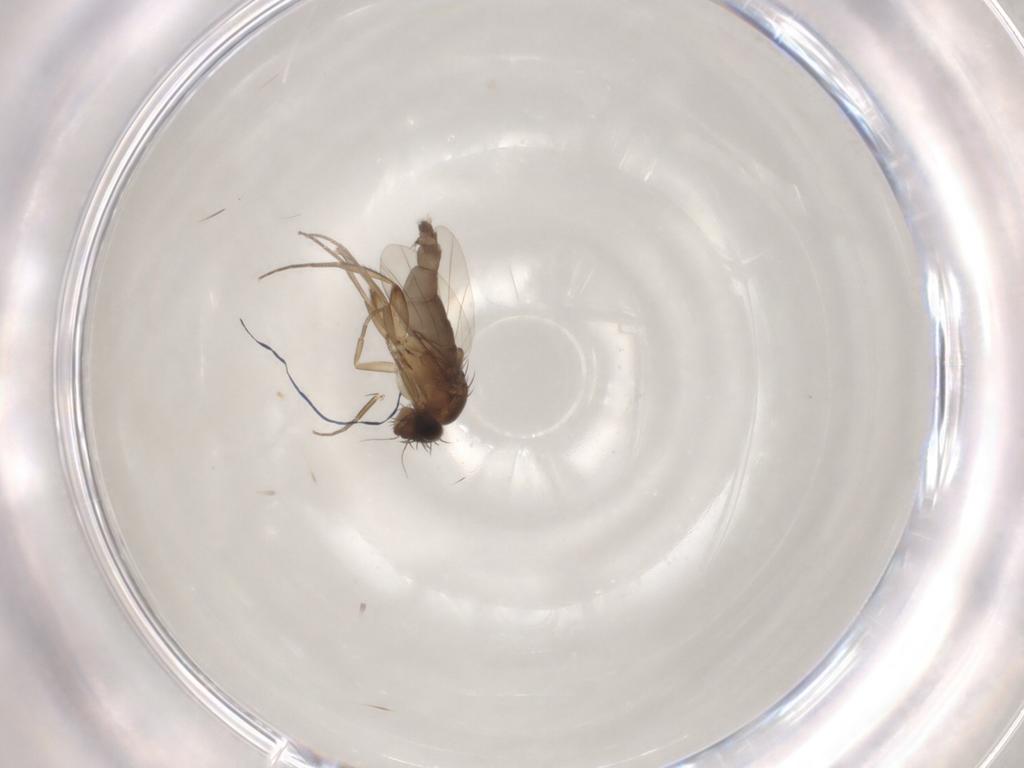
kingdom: Animalia
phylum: Arthropoda
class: Insecta
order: Diptera
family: Phoridae
